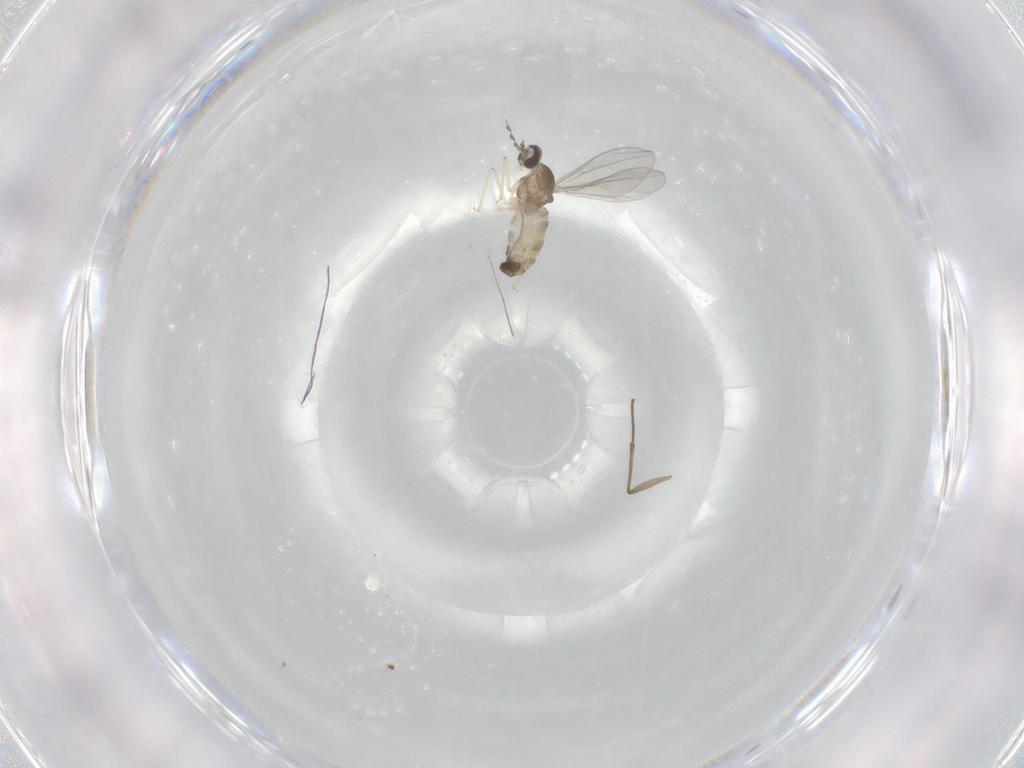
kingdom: Animalia
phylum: Arthropoda
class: Insecta
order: Diptera
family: Cecidomyiidae
